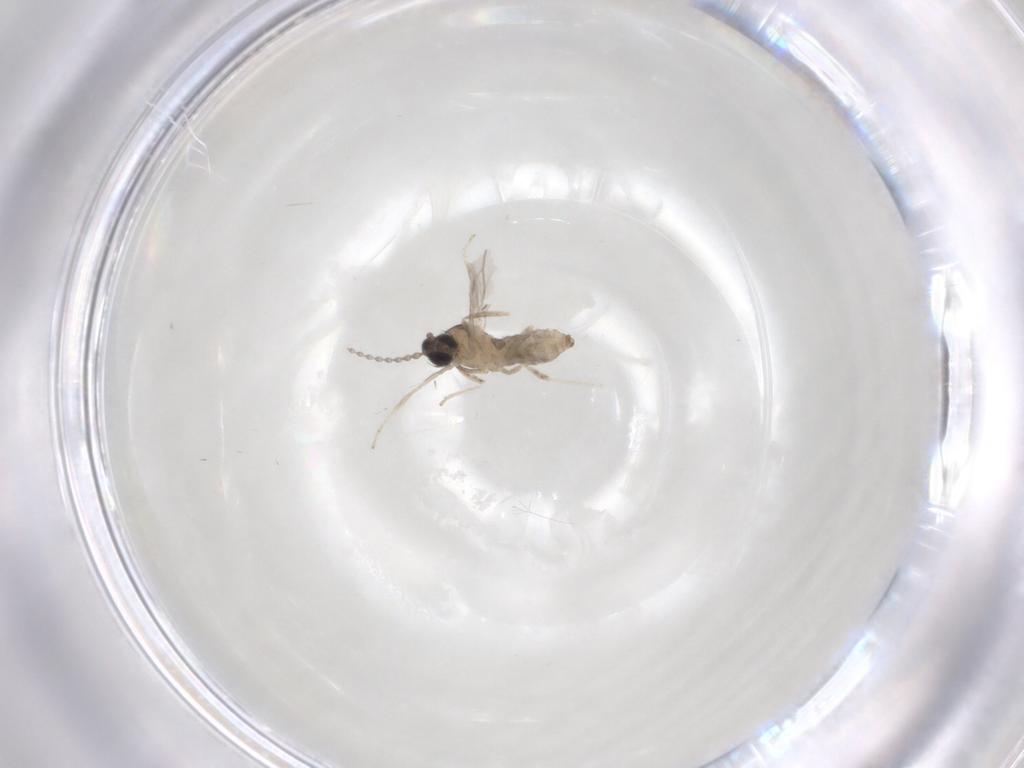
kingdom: Animalia
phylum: Arthropoda
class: Insecta
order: Diptera
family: Cecidomyiidae
